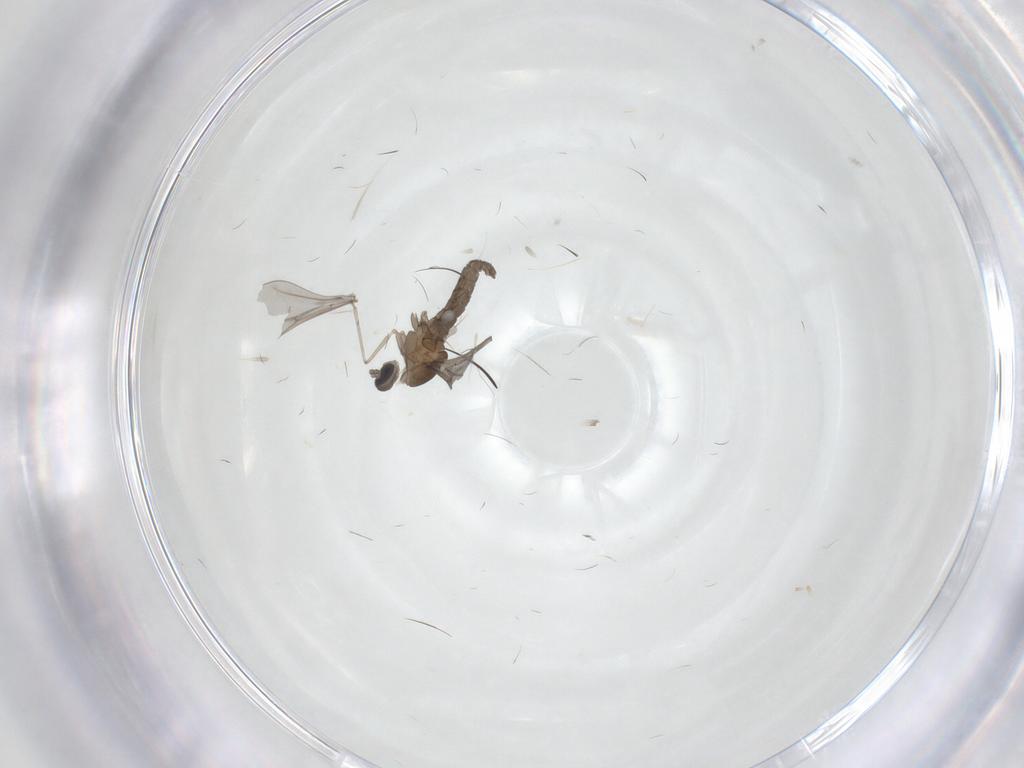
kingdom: Animalia
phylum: Arthropoda
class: Insecta
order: Diptera
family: Cecidomyiidae
